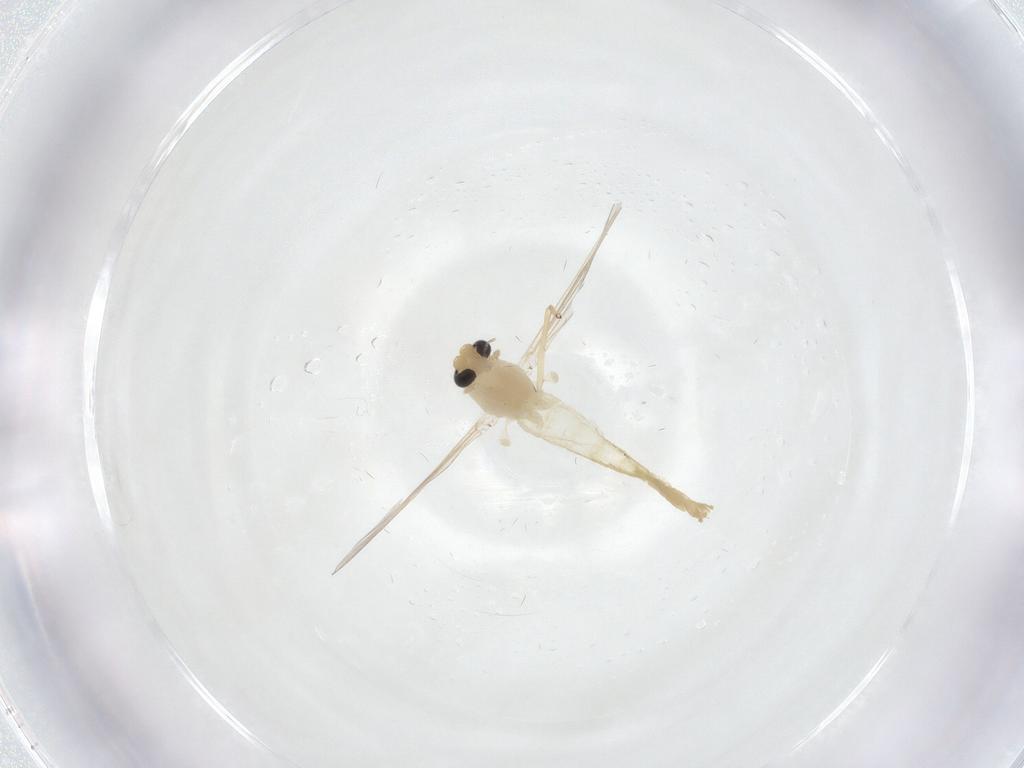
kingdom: Animalia
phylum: Arthropoda
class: Insecta
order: Diptera
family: Chironomidae
